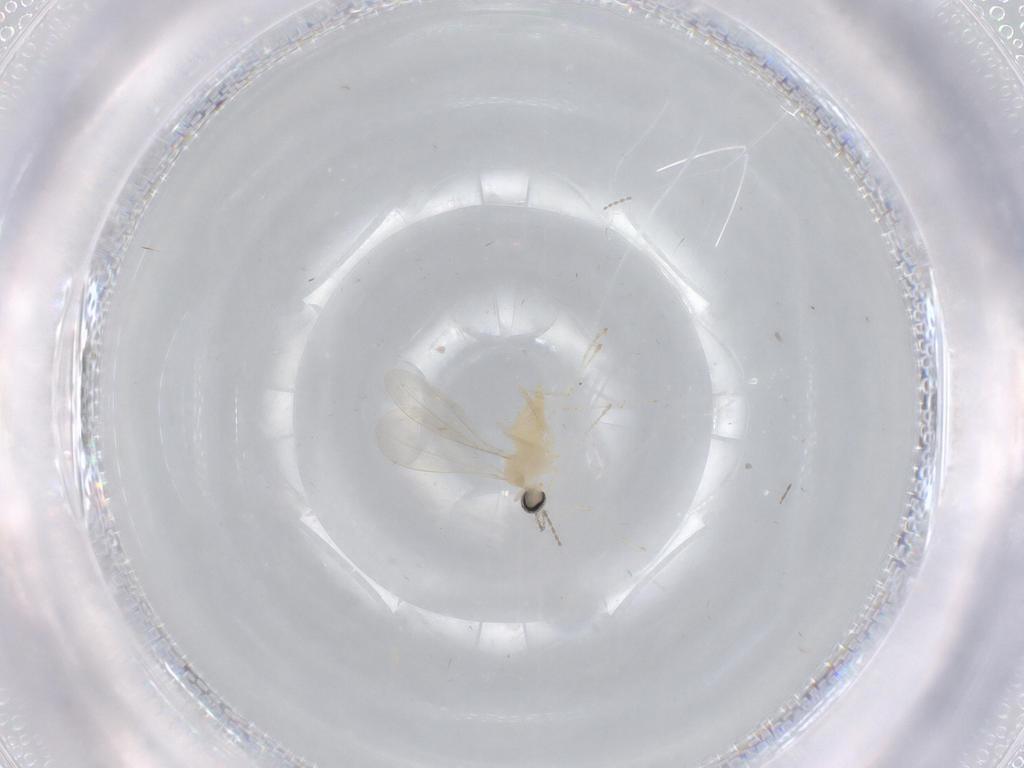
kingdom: Animalia
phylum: Arthropoda
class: Insecta
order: Diptera
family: Cecidomyiidae
